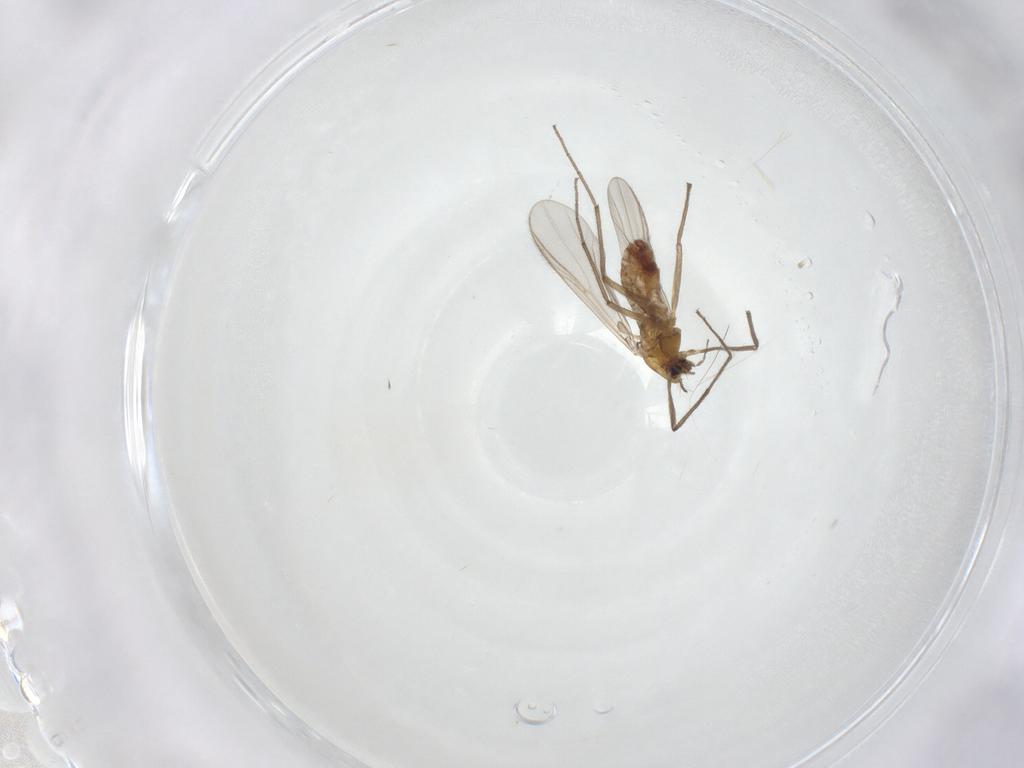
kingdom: Animalia
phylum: Arthropoda
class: Insecta
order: Diptera
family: Chironomidae
